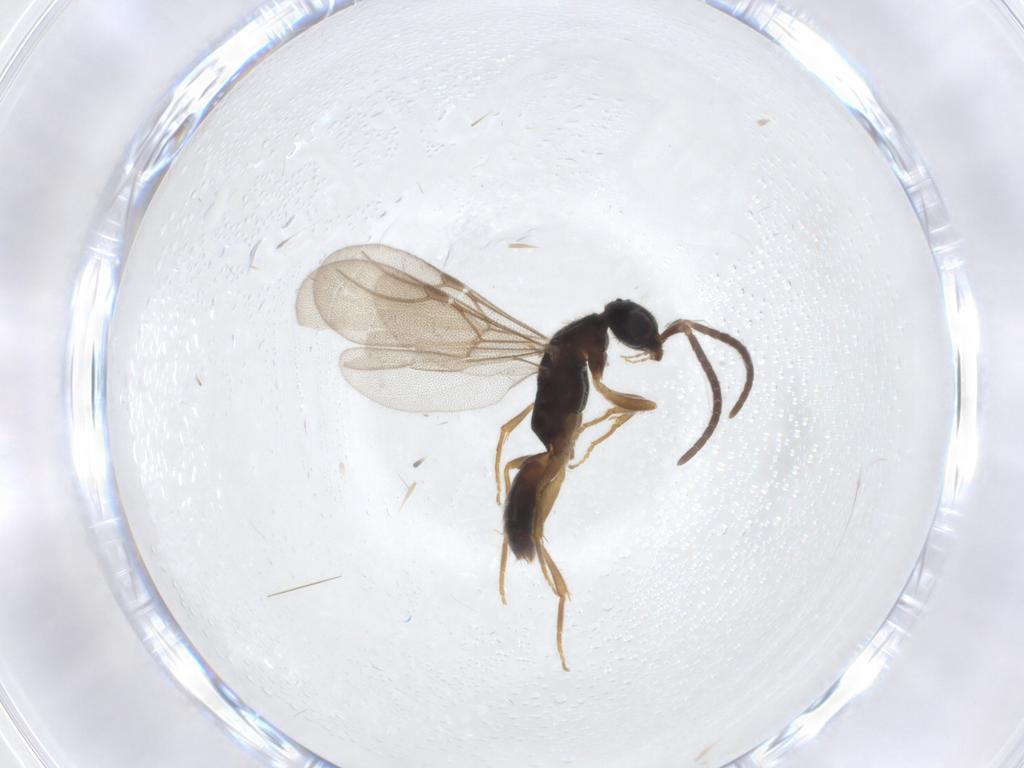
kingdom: Animalia
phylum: Arthropoda
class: Insecta
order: Hymenoptera
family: Bethylidae
